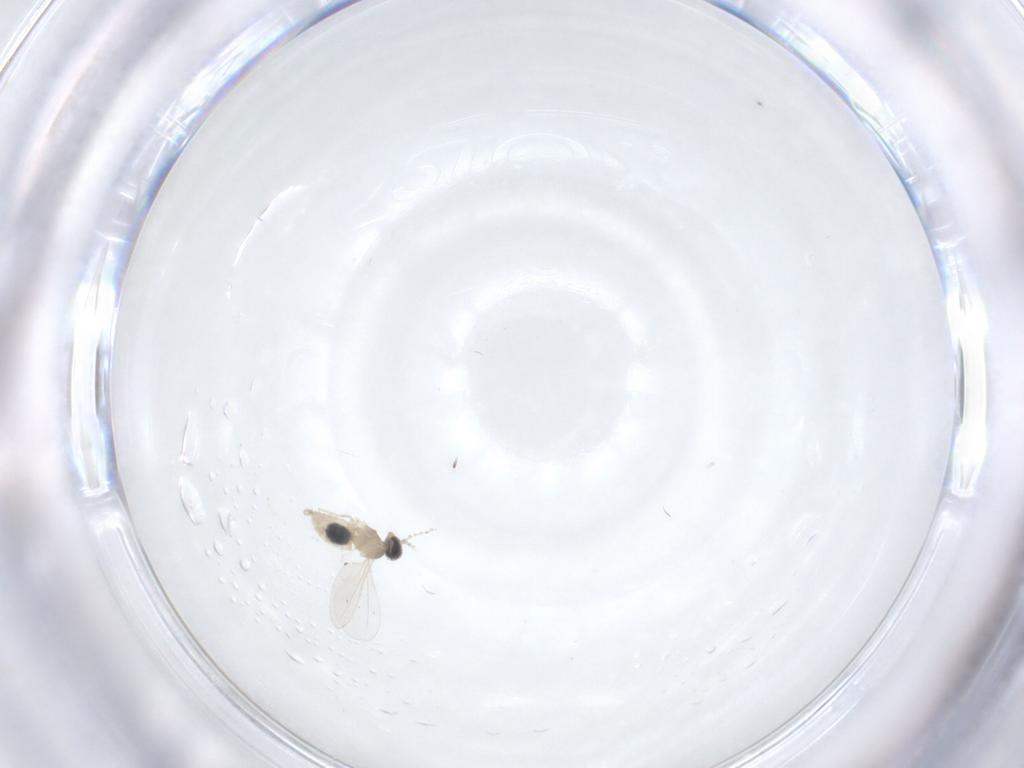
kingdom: Animalia
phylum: Arthropoda
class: Insecta
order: Diptera
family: Limoniidae
